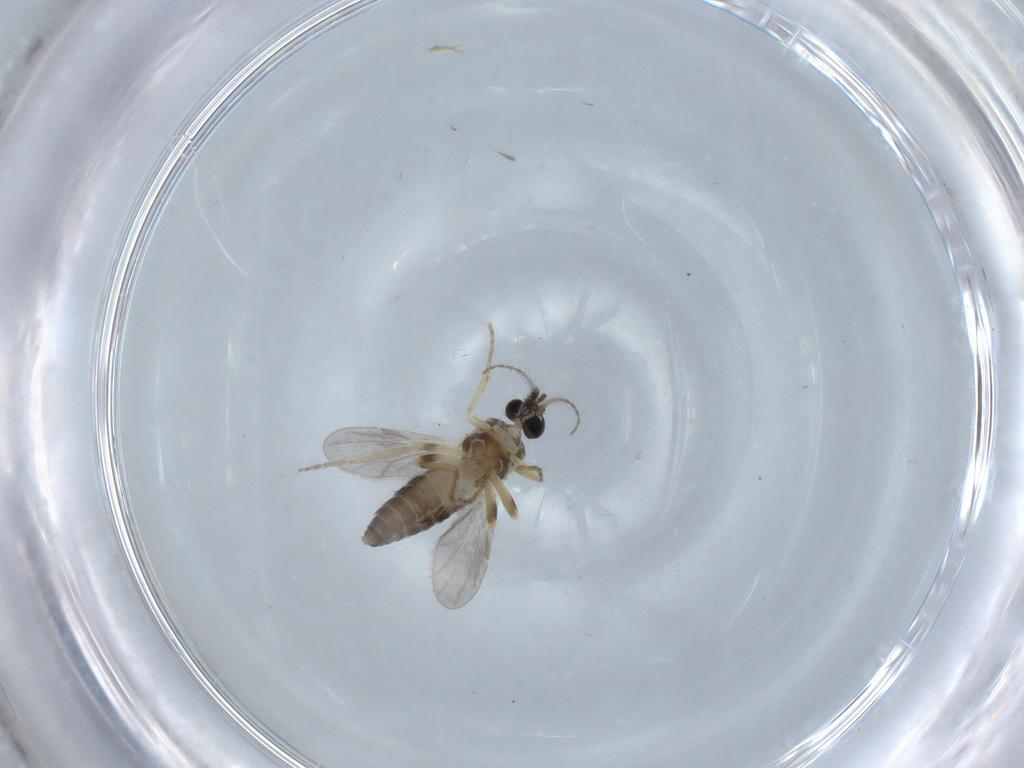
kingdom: Animalia
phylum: Arthropoda
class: Insecta
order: Diptera
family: Ceratopogonidae
